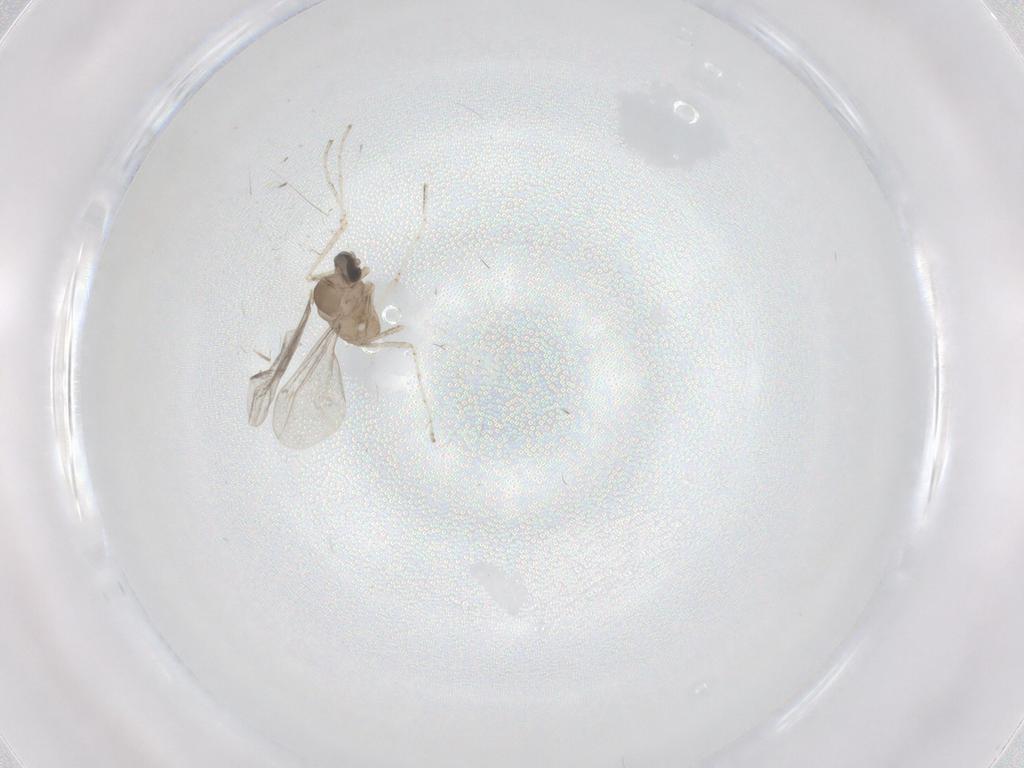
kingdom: Animalia
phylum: Arthropoda
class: Insecta
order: Diptera
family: Cecidomyiidae
